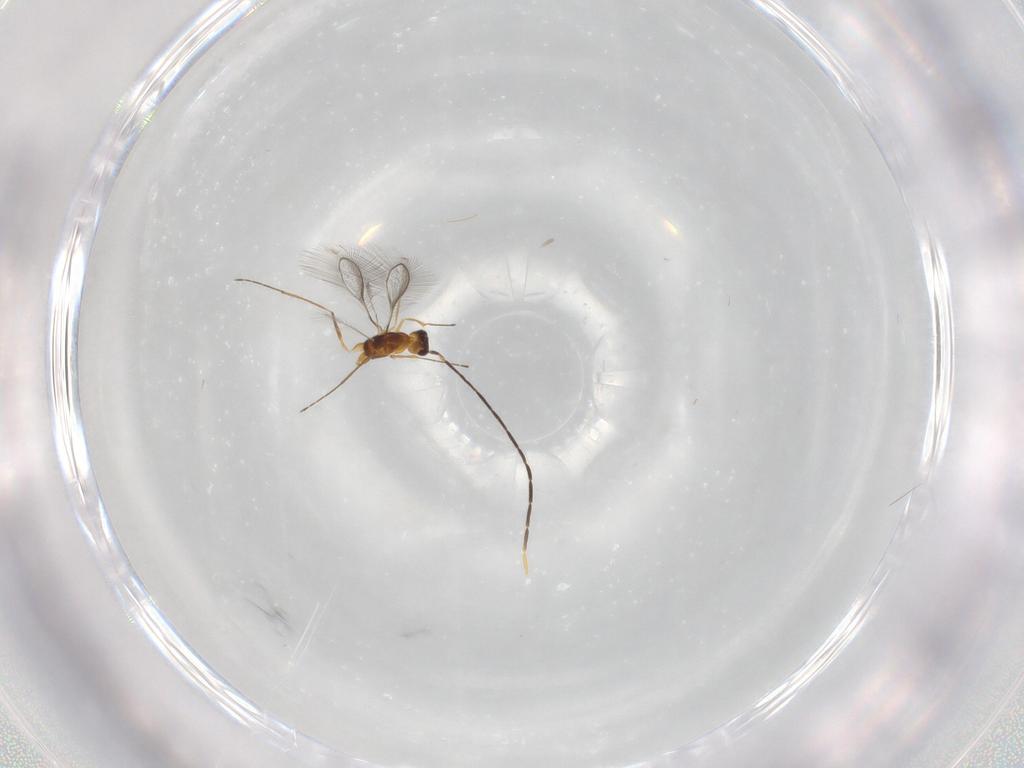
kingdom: Animalia
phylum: Arthropoda
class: Insecta
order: Hymenoptera
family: Mymaridae
